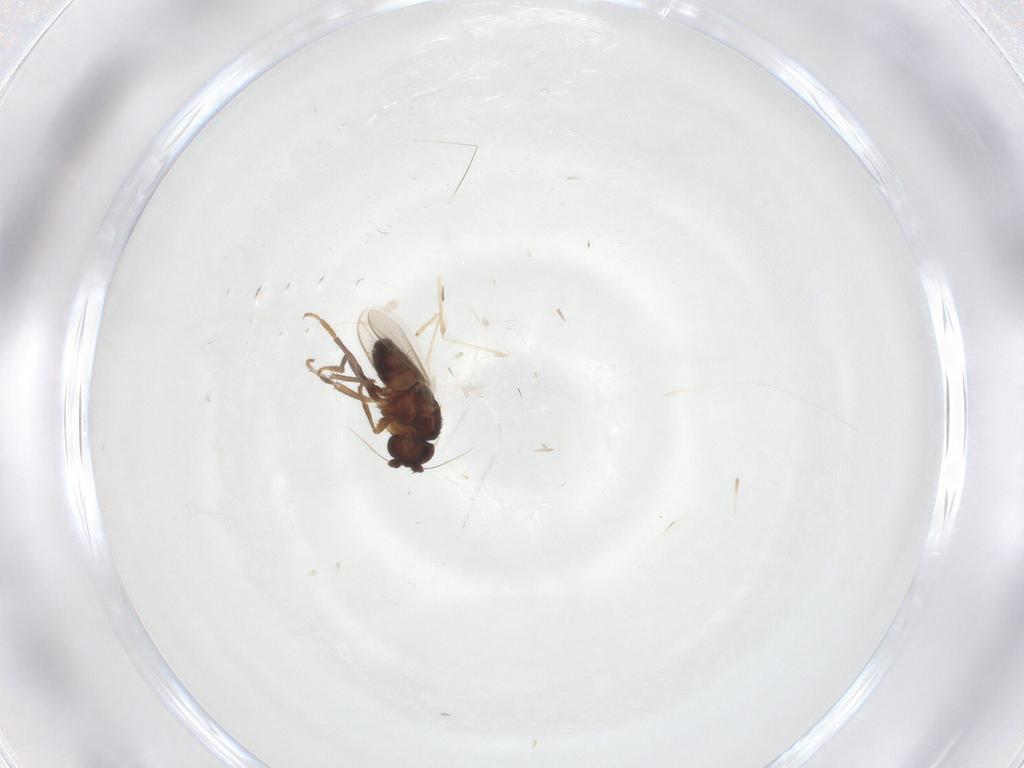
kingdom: Animalia
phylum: Arthropoda
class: Insecta
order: Diptera
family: Sphaeroceridae
